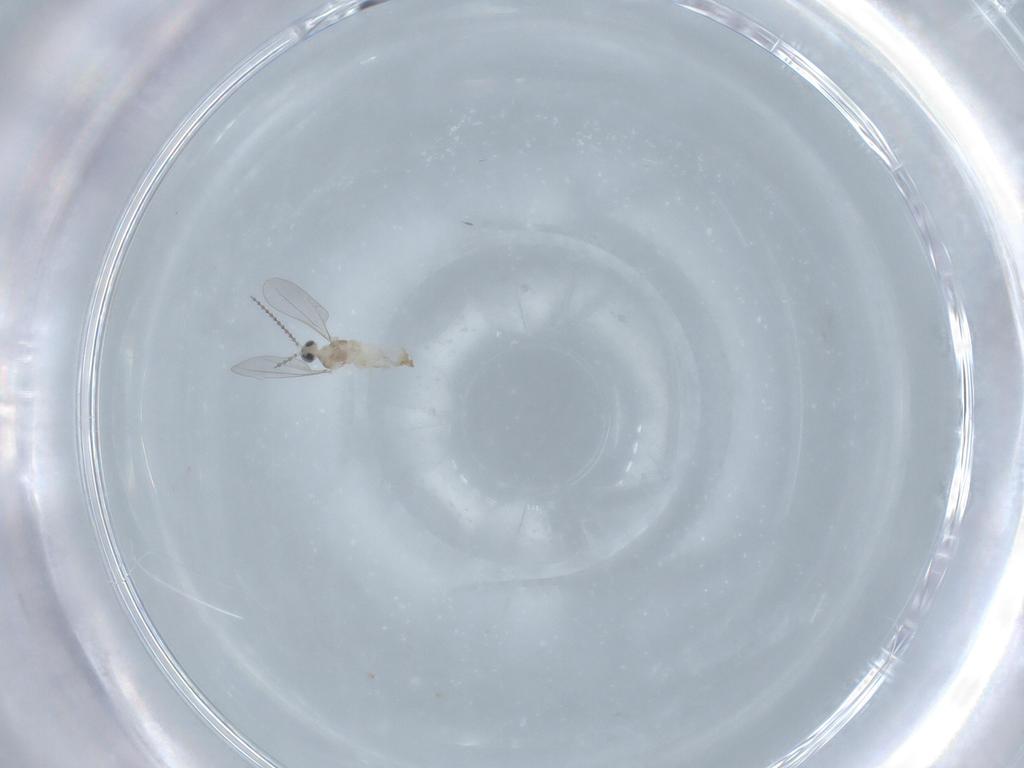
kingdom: Animalia
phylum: Arthropoda
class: Insecta
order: Diptera
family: Cecidomyiidae
